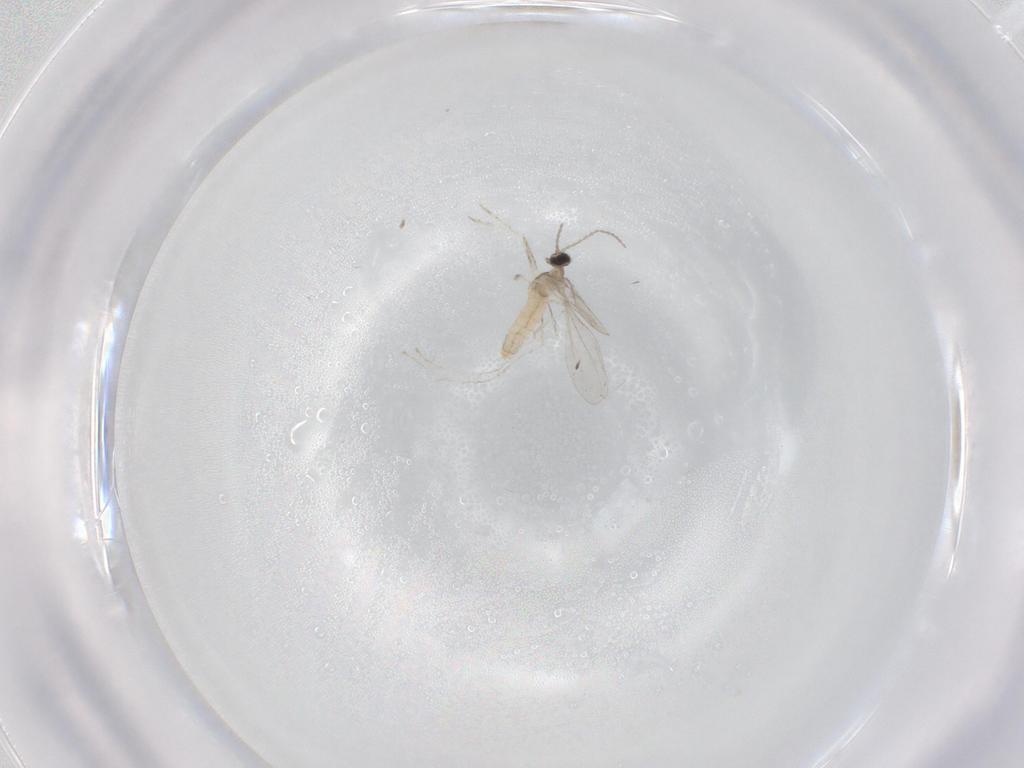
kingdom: Animalia
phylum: Arthropoda
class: Insecta
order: Diptera
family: Cecidomyiidae
